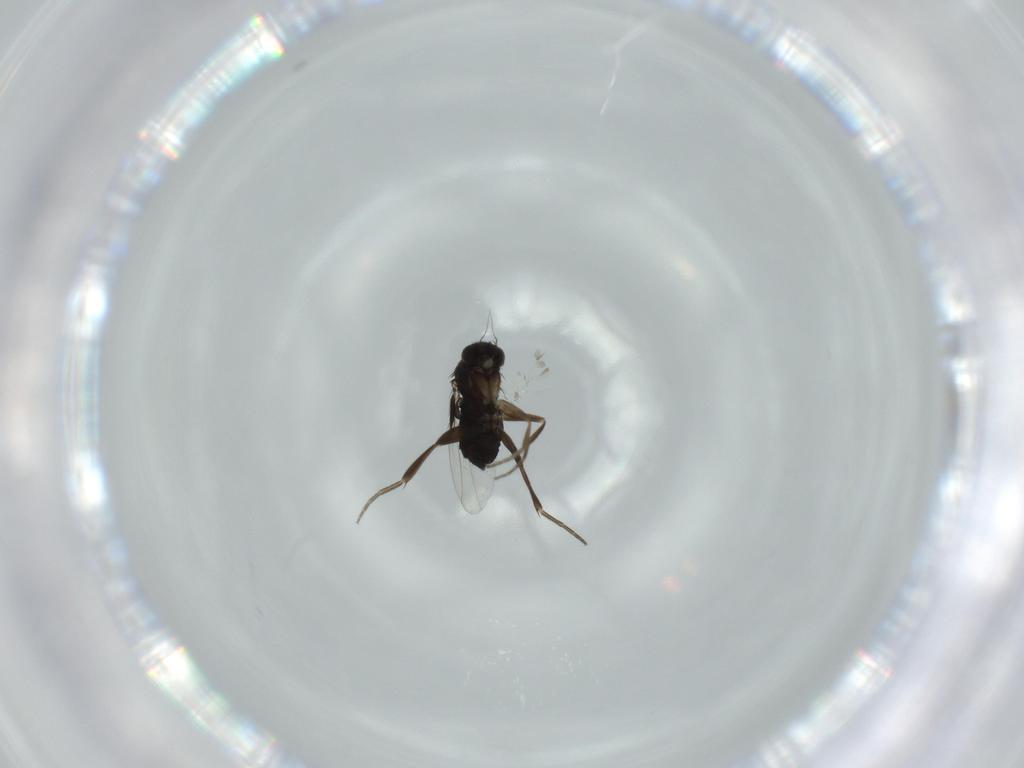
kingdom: Animalia
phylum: Arthropoda
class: Insecta
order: Diptera
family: Phoridae
